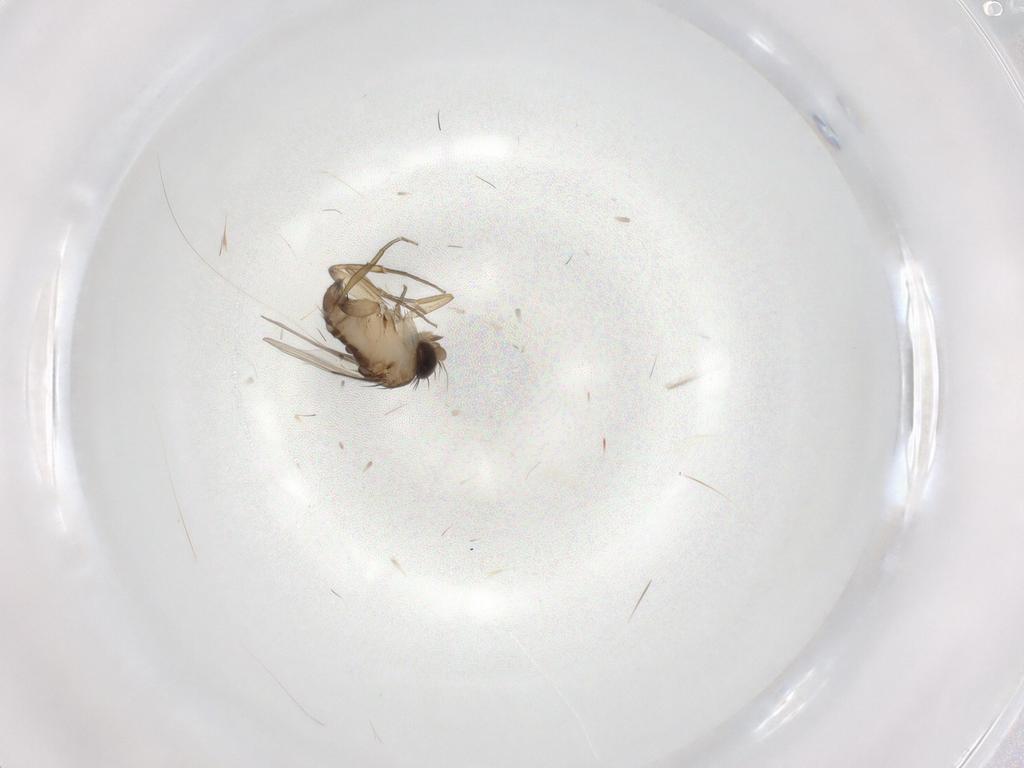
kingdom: Animalia
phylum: Arthropoda
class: Insecta
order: Diptera
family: Phoridae
